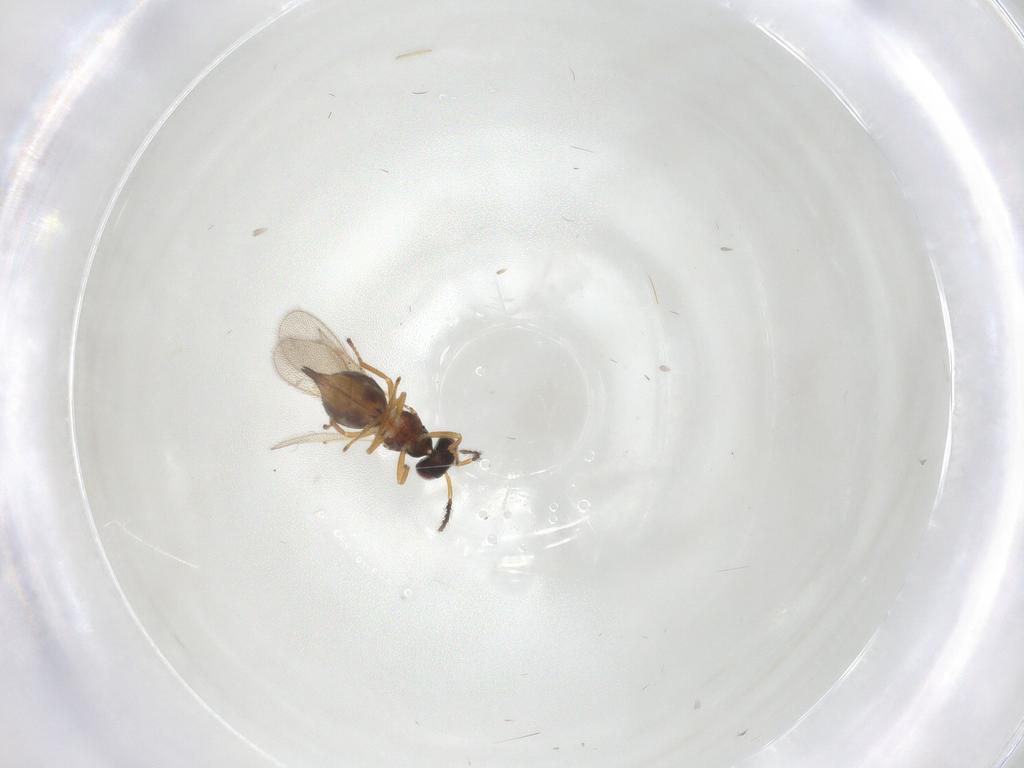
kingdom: Animalia
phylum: Arthropoda
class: Insecta
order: Hymenoptera
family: Eulophidae
